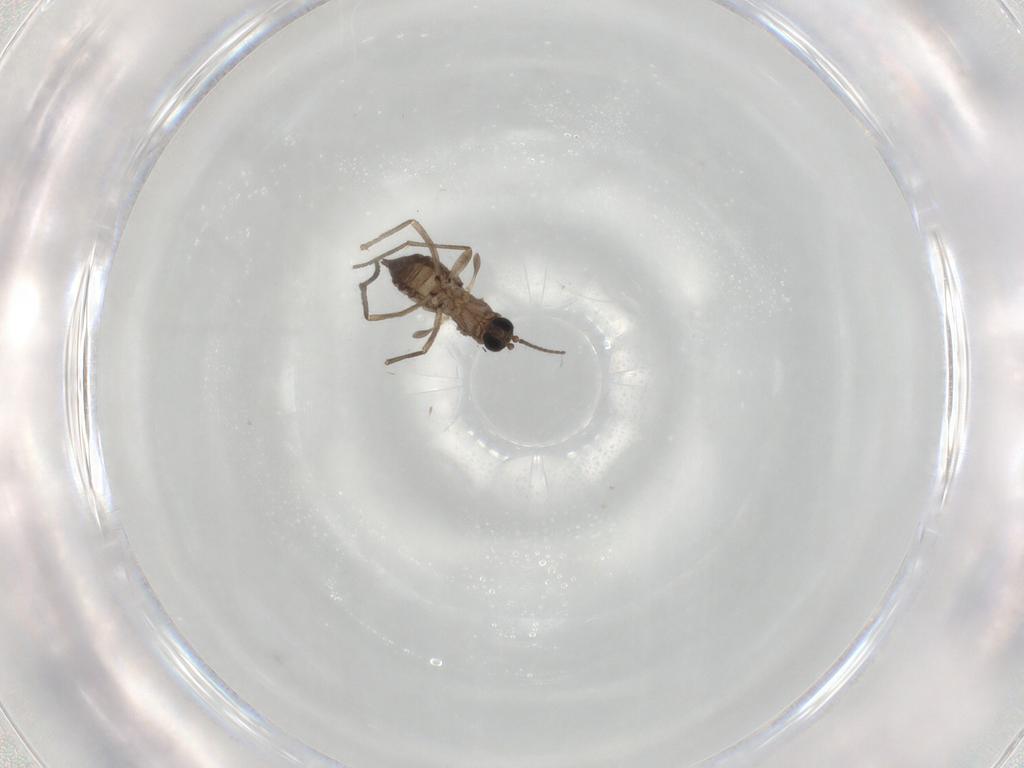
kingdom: Animalia
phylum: Arthropoda
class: Insecta
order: Diptera
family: Sciaridae
